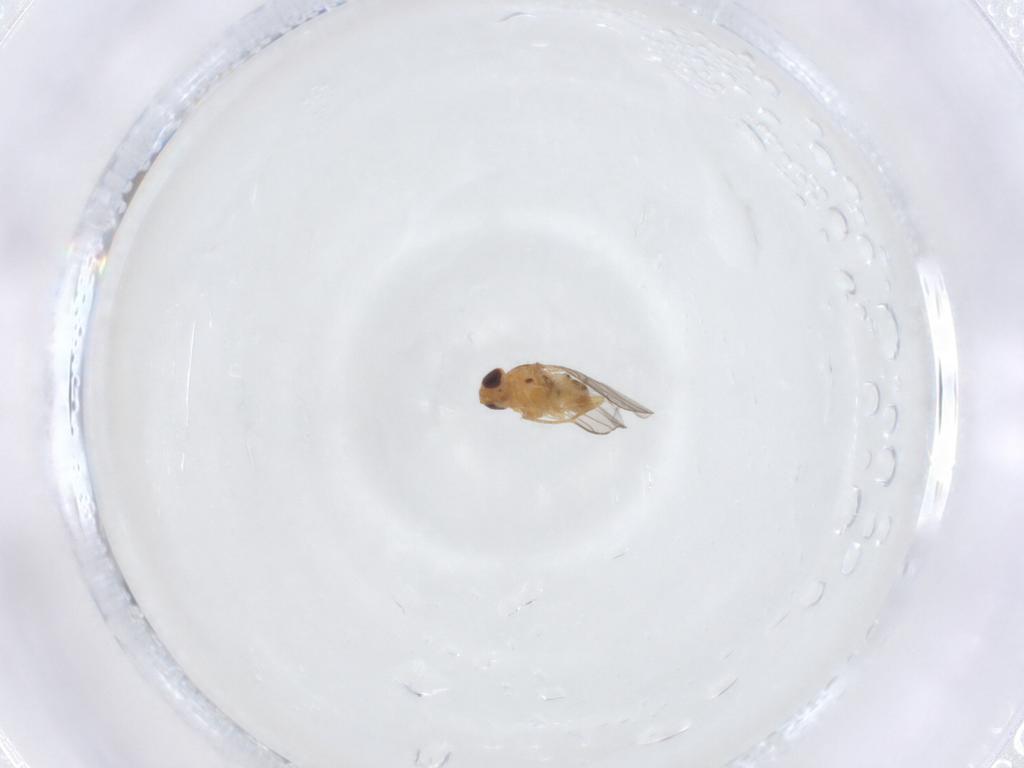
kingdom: Animalia
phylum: Arthropoda
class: Insecta
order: Diptera
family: Chloropidae
